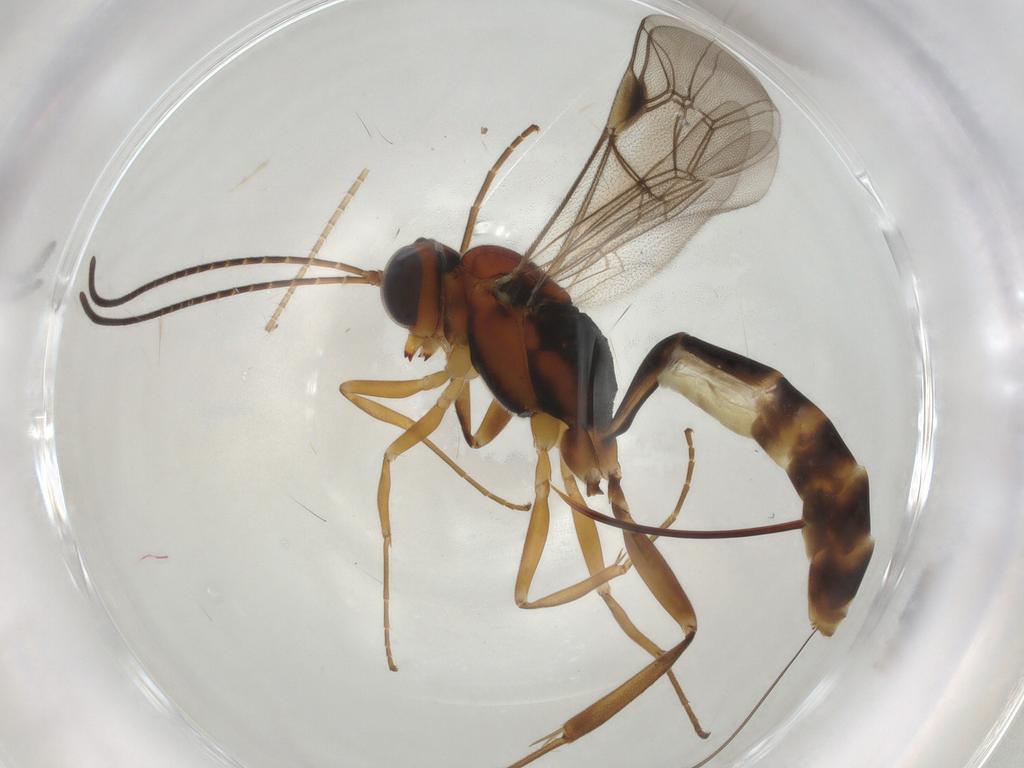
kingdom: Animalia
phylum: Arthropoda
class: Insecta
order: Hymenoptera
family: Ichneumonidae
